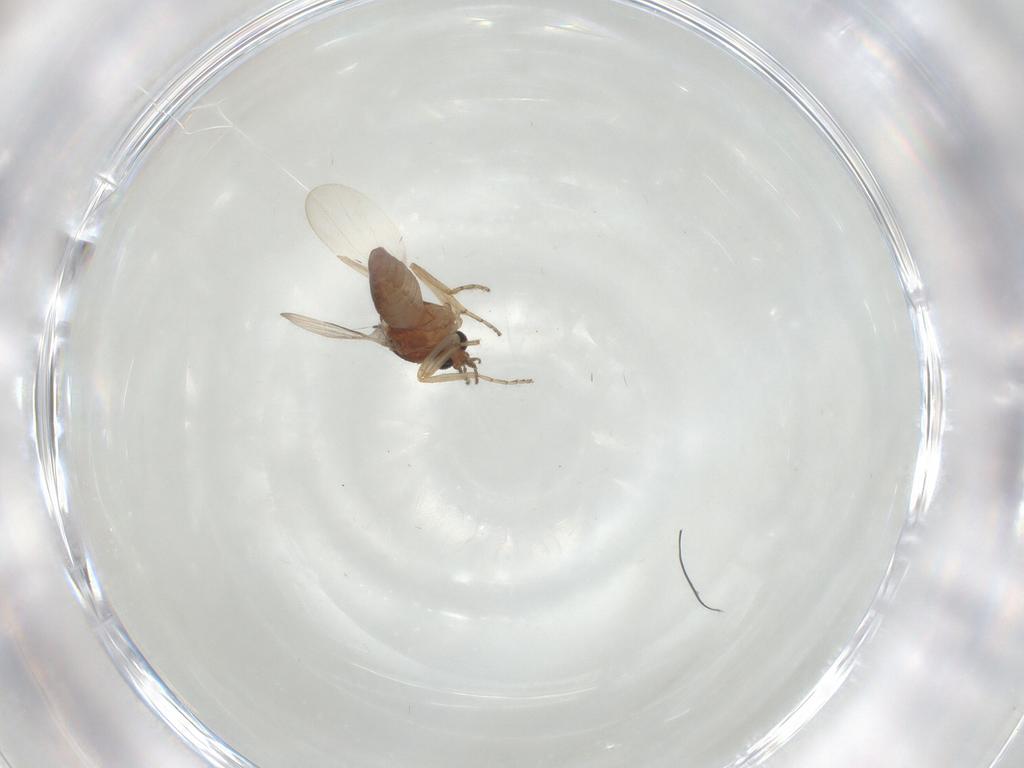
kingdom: Animalia
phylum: Arthropoda
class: Insecta
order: Diptera
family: Ceratopogonidae
